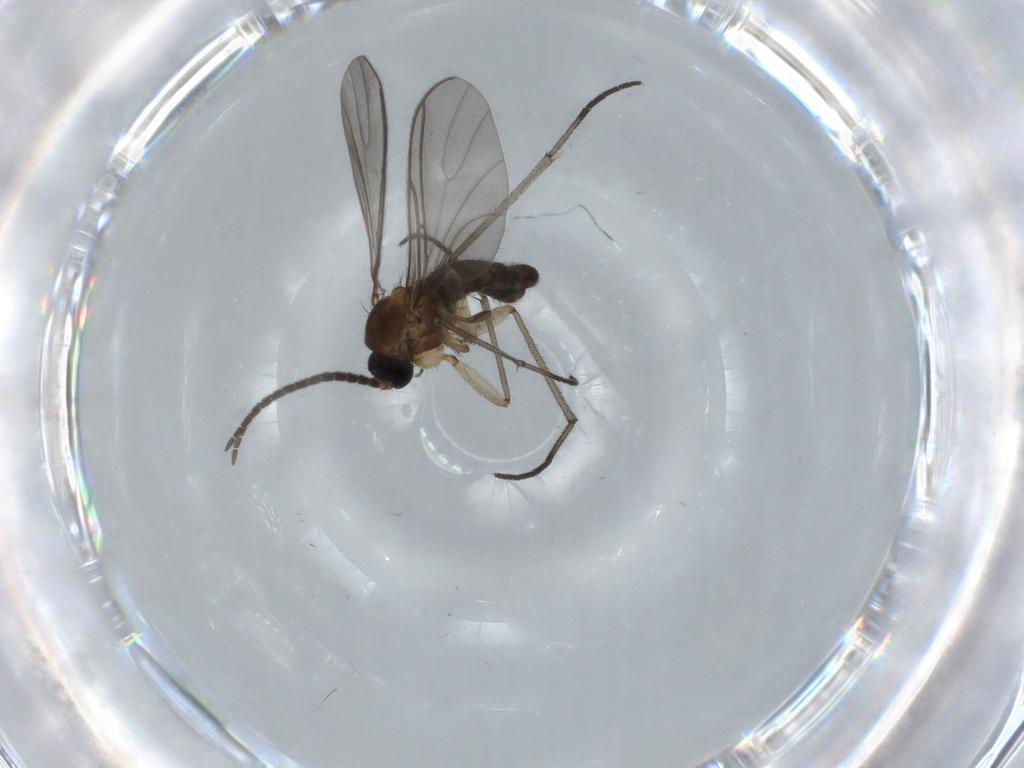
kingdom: Animalia
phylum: Arthropoda
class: Insecta
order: Diptera
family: Sciaridae
